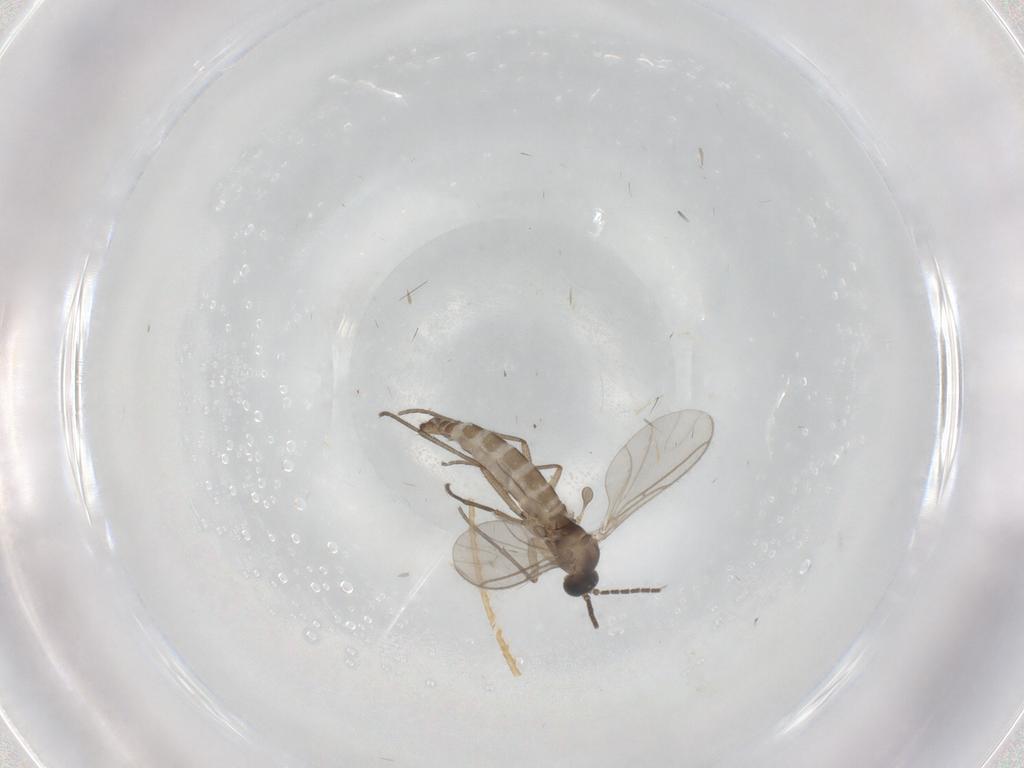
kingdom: Animalia
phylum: Arthropoda
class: Insecta
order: Diptera
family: Sciaridae
